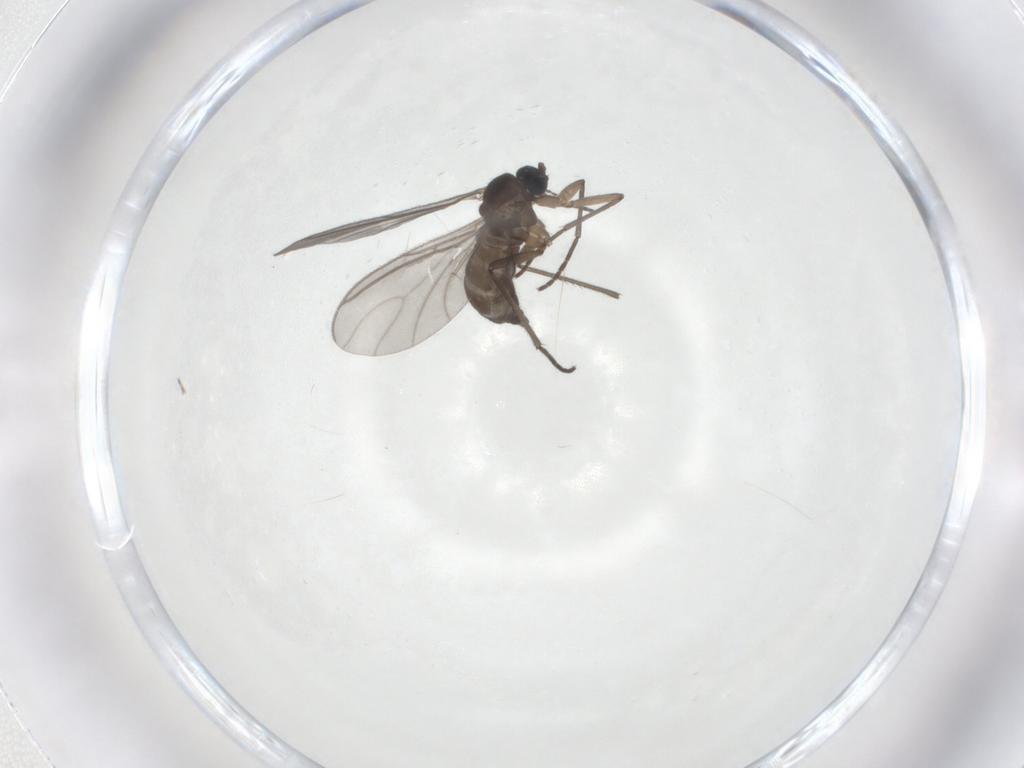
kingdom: Animalia
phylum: Arthropoda
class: Insecta
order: Diptera
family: Sciaridae
